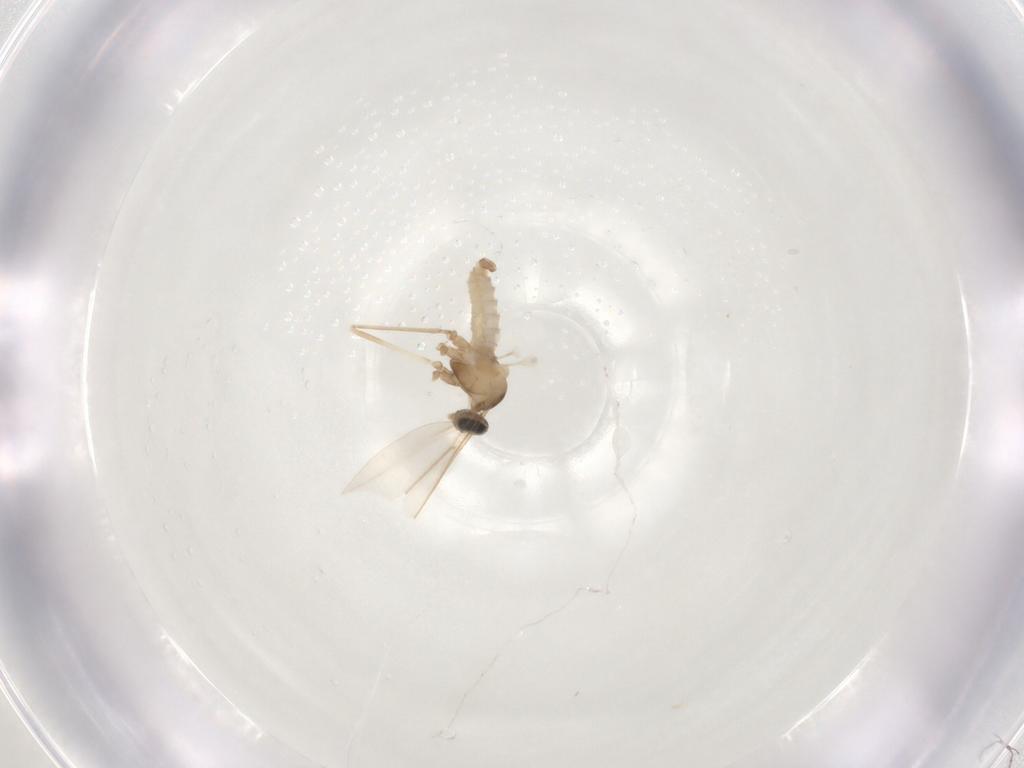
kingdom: Animalia
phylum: Arthropoda
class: Insecta
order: Diptera
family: Cecidomyiidae
